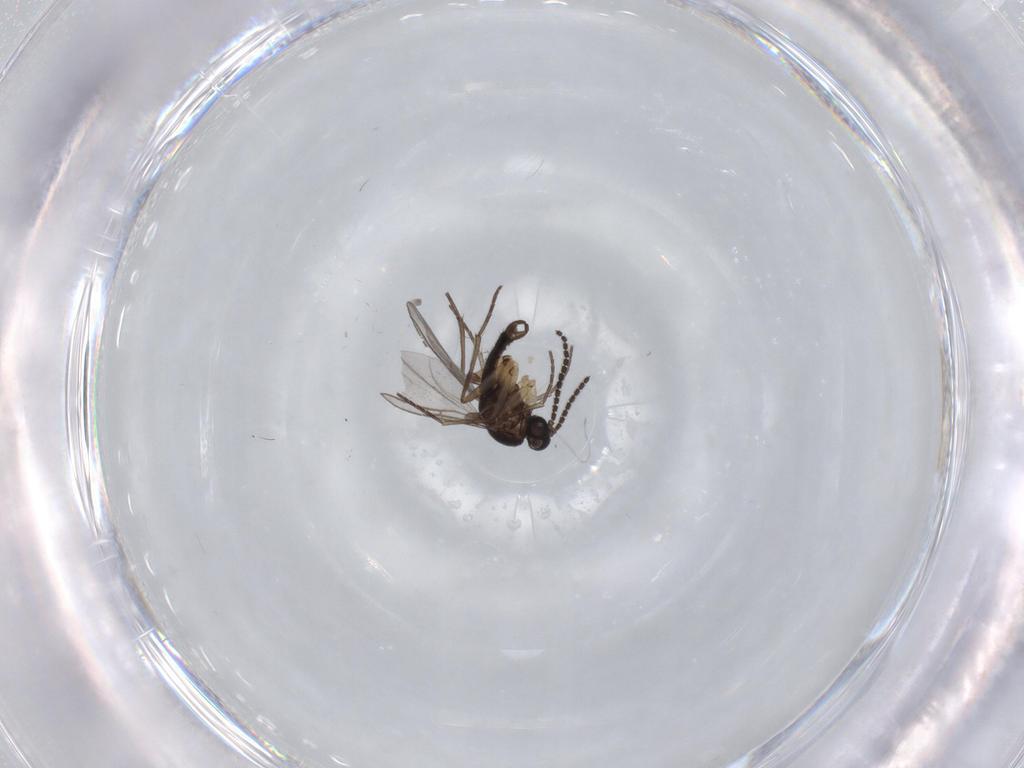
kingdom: Animalia
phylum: Arthropoda
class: Insecta
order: Diptera
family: Sciaridae
